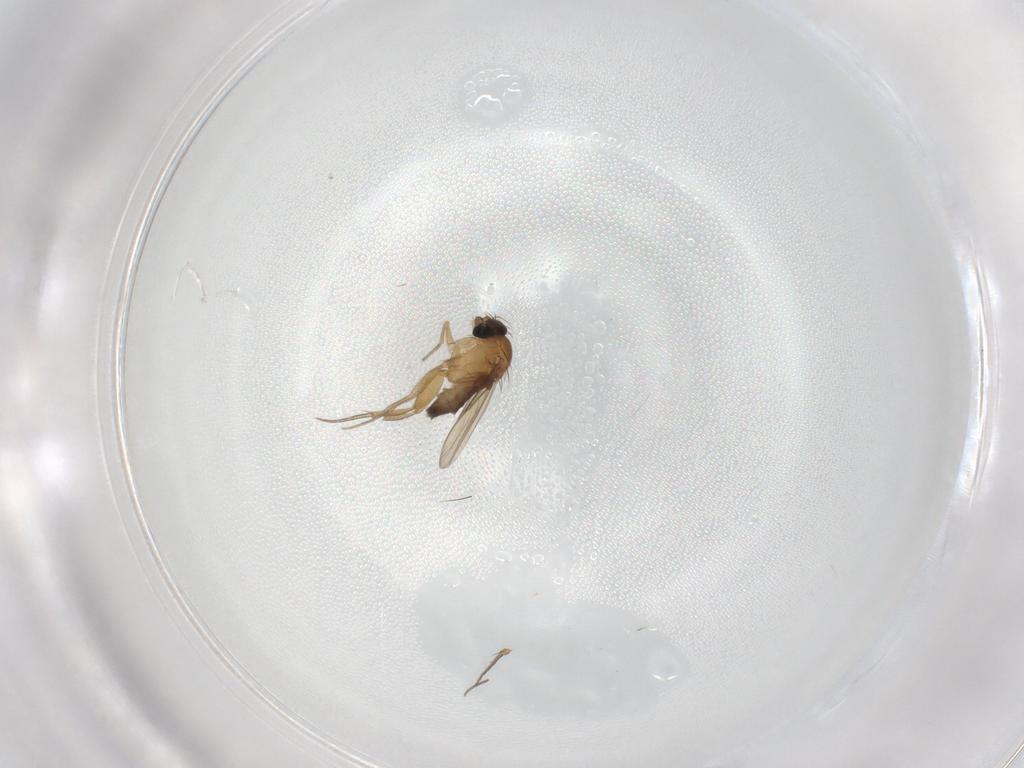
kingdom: Animalia
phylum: Arthropoda
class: Insecta
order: Diptera
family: Phoridae
